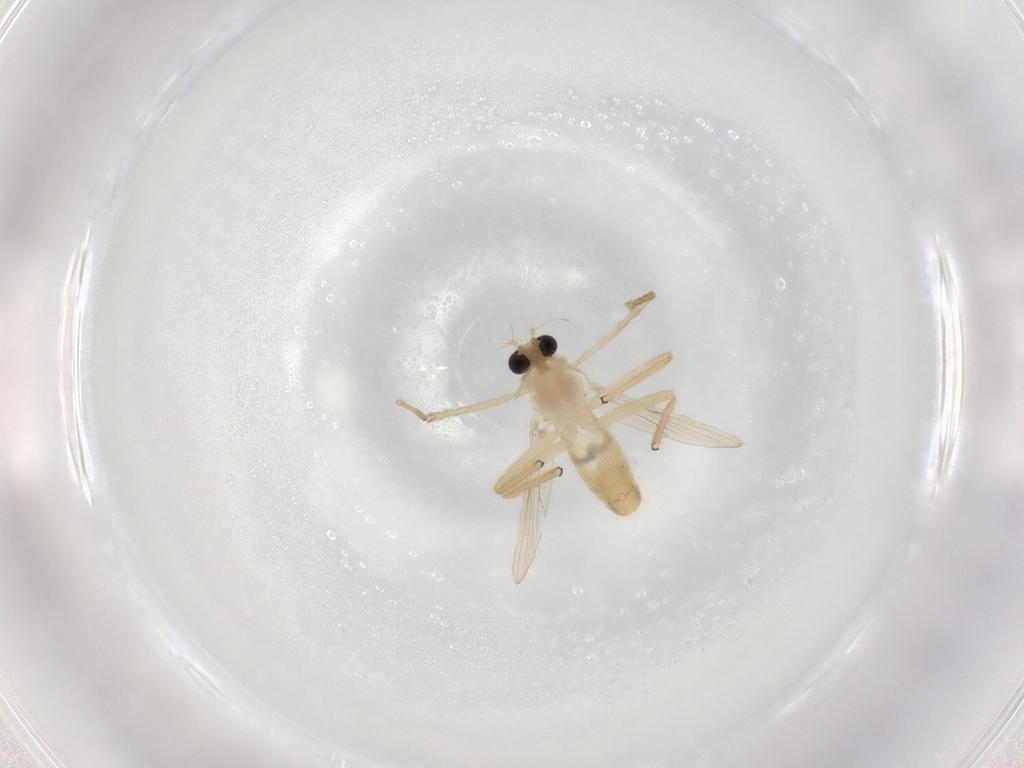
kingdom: Animalia
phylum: Arthropoda
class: Insecta
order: Diptera
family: Chironomidae
